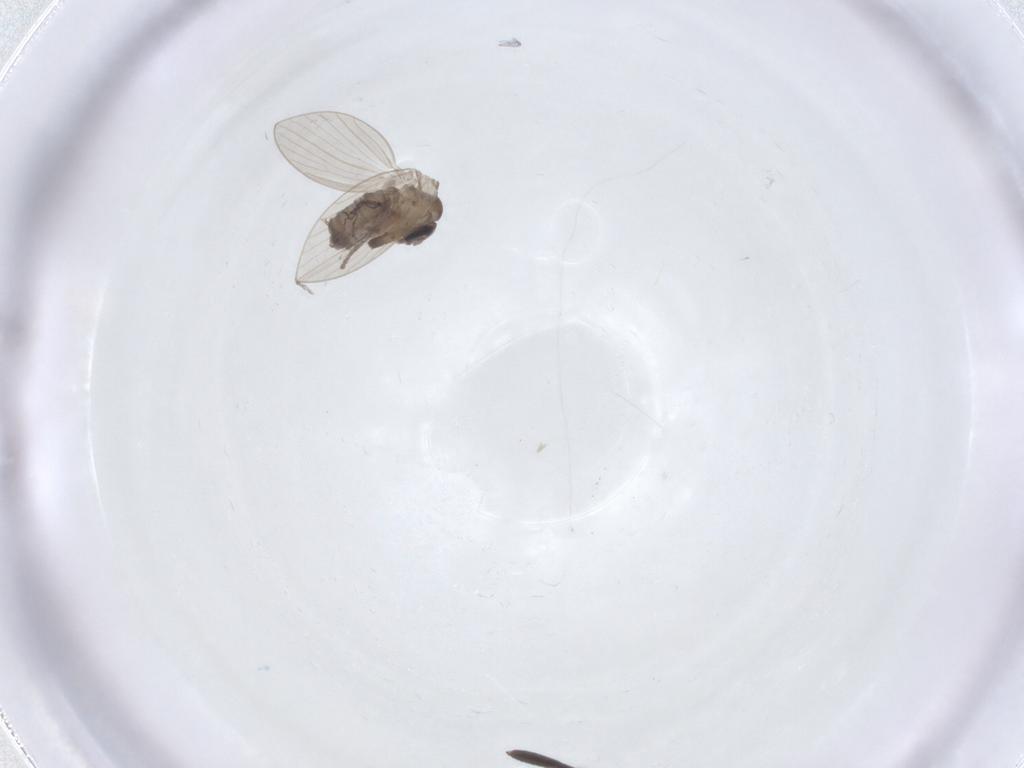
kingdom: Animalia
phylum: Arthropoda
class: Insecta
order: Diptera
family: Psychodidae
